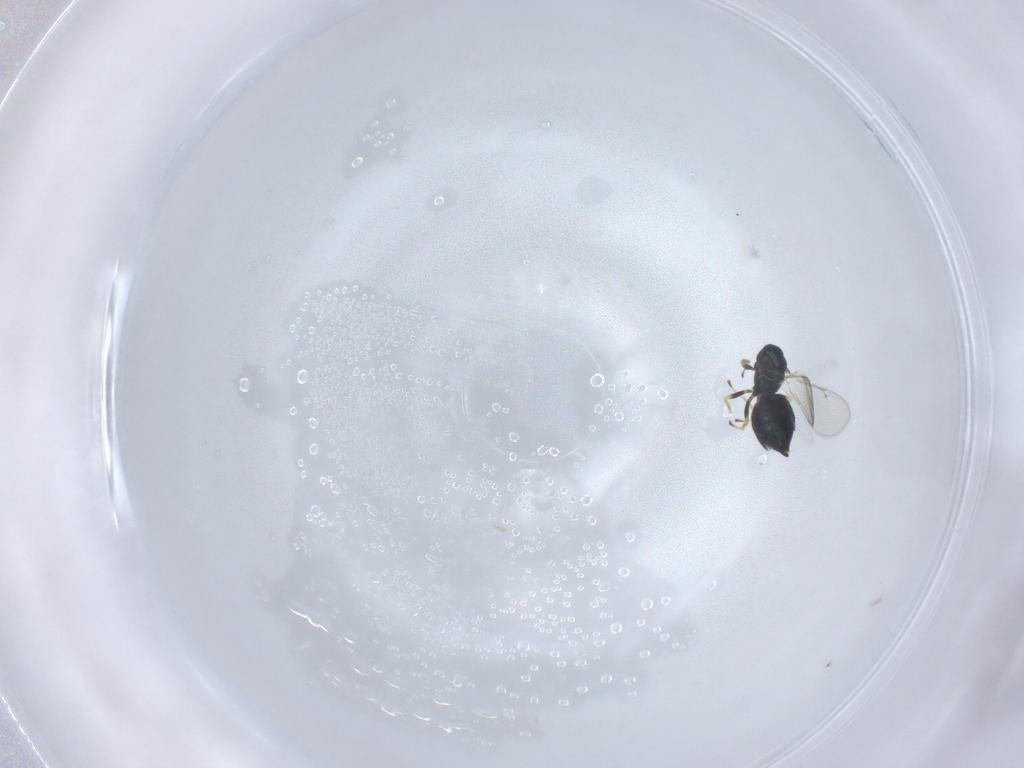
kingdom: Animalia
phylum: Arthropoda
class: Insecta
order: Hymenoptera
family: Eulophidae
